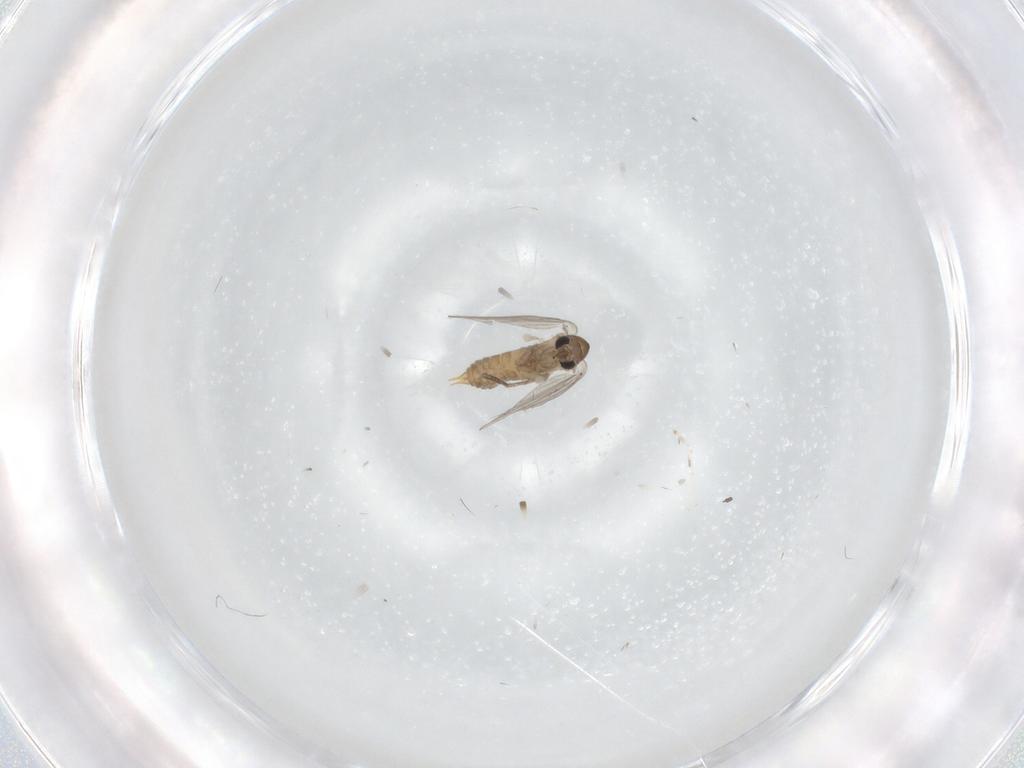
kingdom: Animalia
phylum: Arthropoda
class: Insecta
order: Diptera
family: Psychodidae
